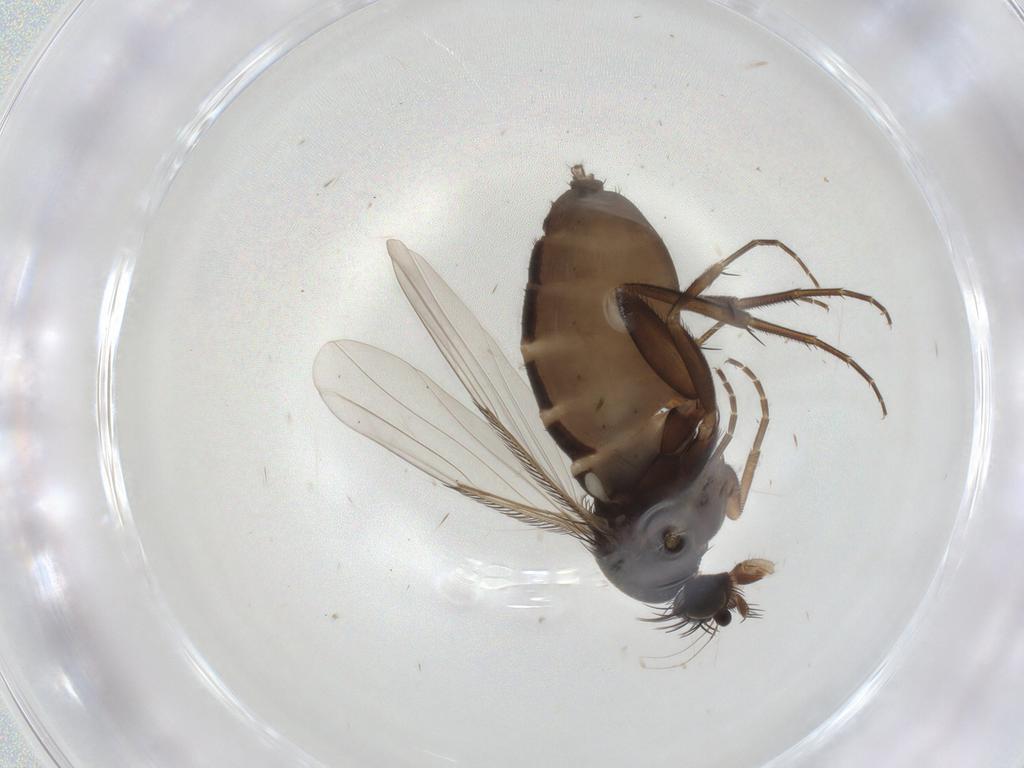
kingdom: Animalia
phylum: Arthropoda
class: Insecta
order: Diptera
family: Phoridae
